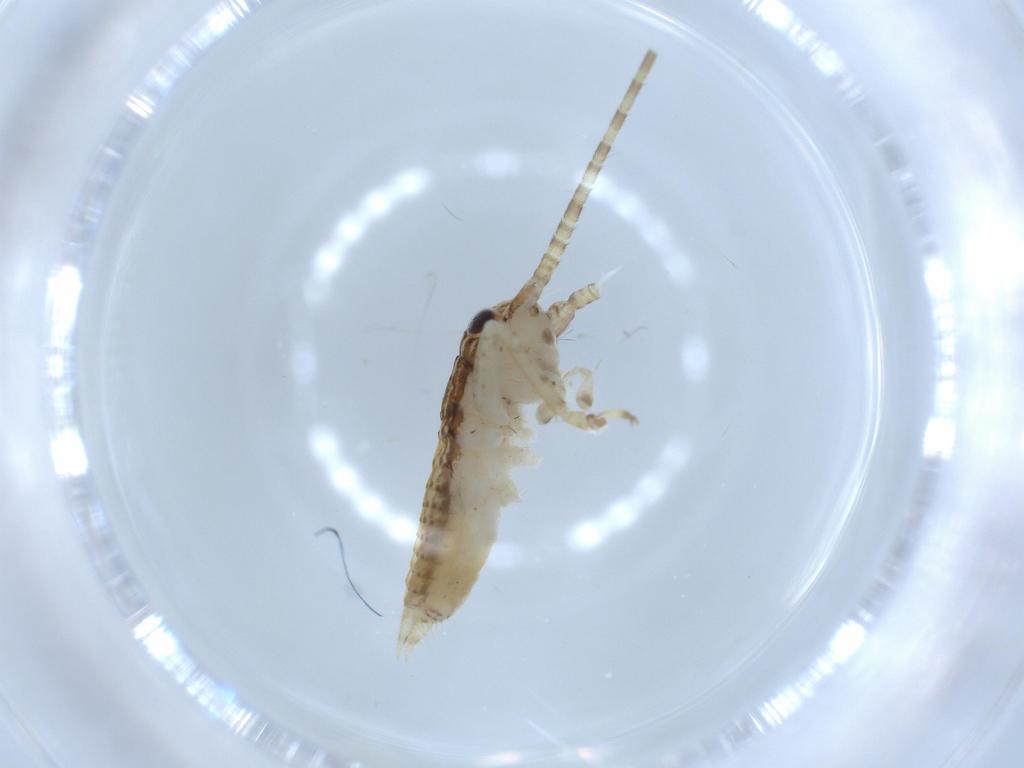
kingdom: Animalia
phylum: Arthropoda
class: Insecta
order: Orthoptera
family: Gryllidae
